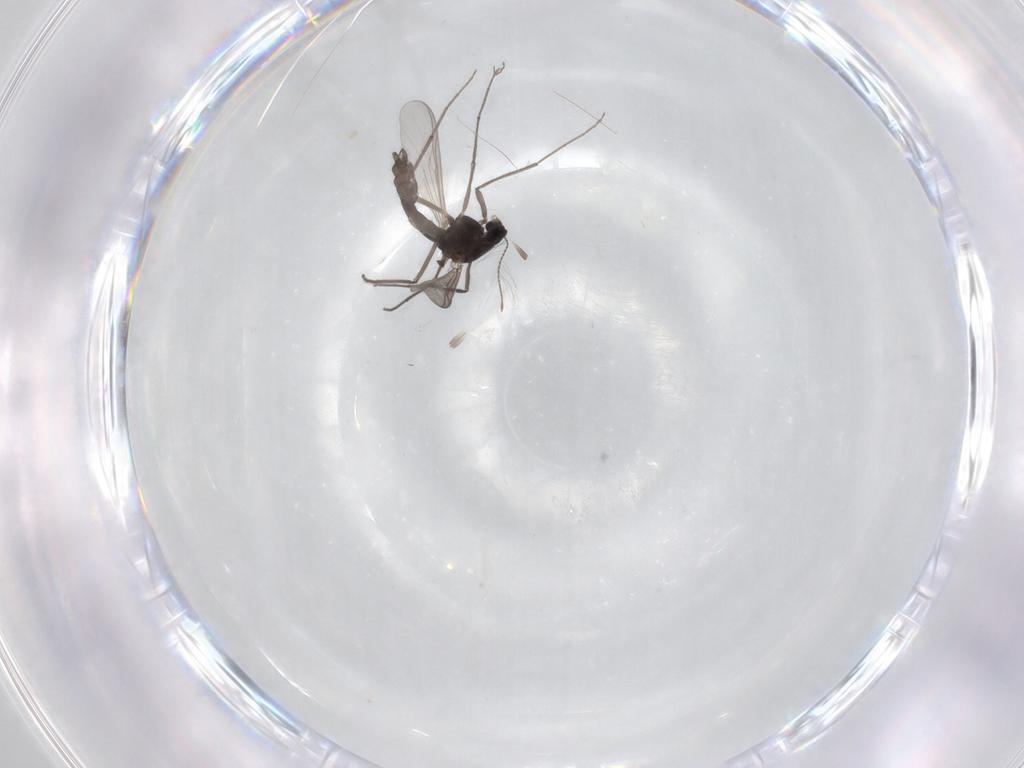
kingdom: Animalia
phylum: Arthropoda
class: Insecta
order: Diptera
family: Chironomidae
